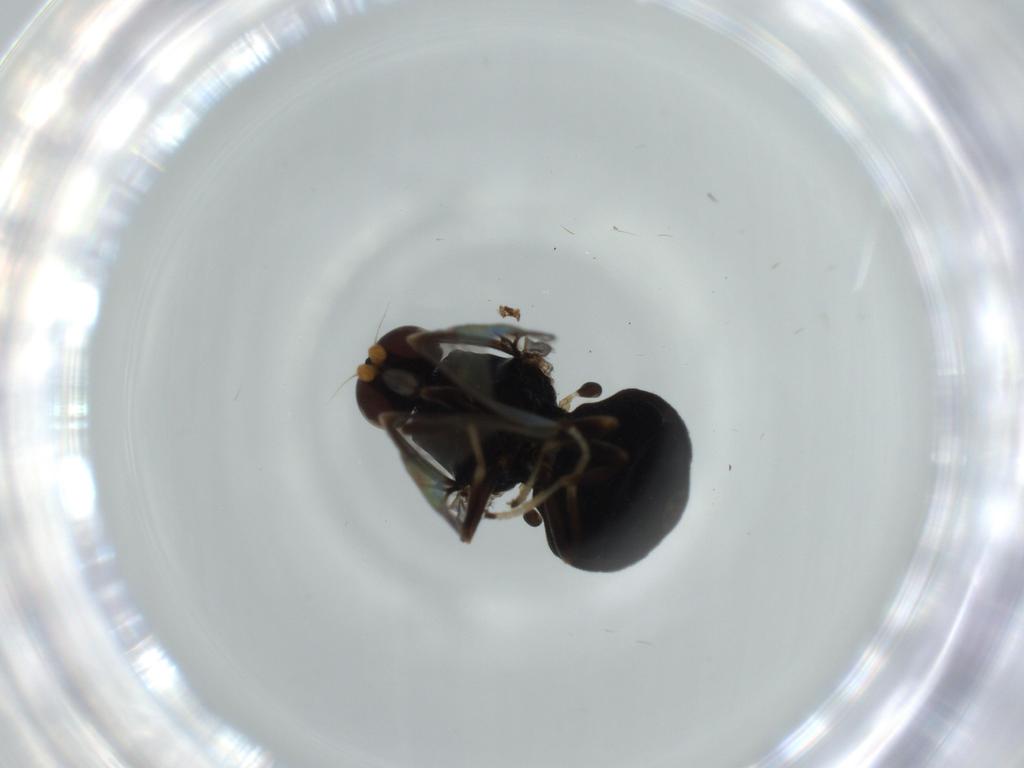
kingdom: Animalia
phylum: Arthropoda
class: Insecta
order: Diptera
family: Stratiomyidae
